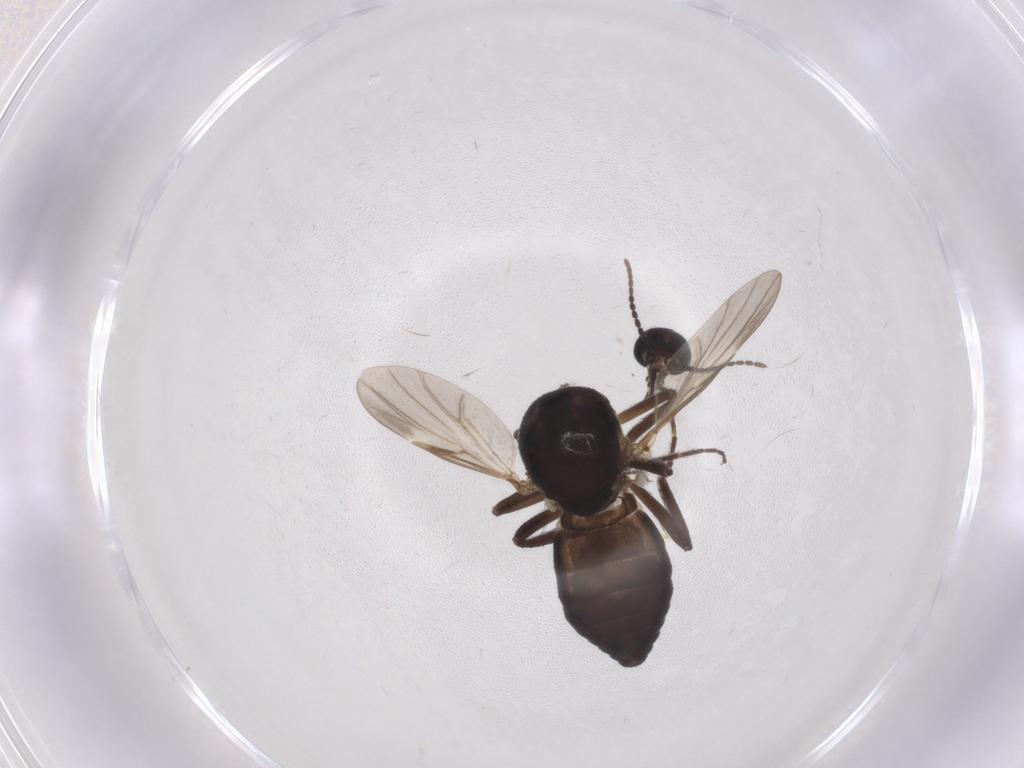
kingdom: Animalia
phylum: Arthropoda
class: Insecta
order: Diptera
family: Ceratopogonidae
